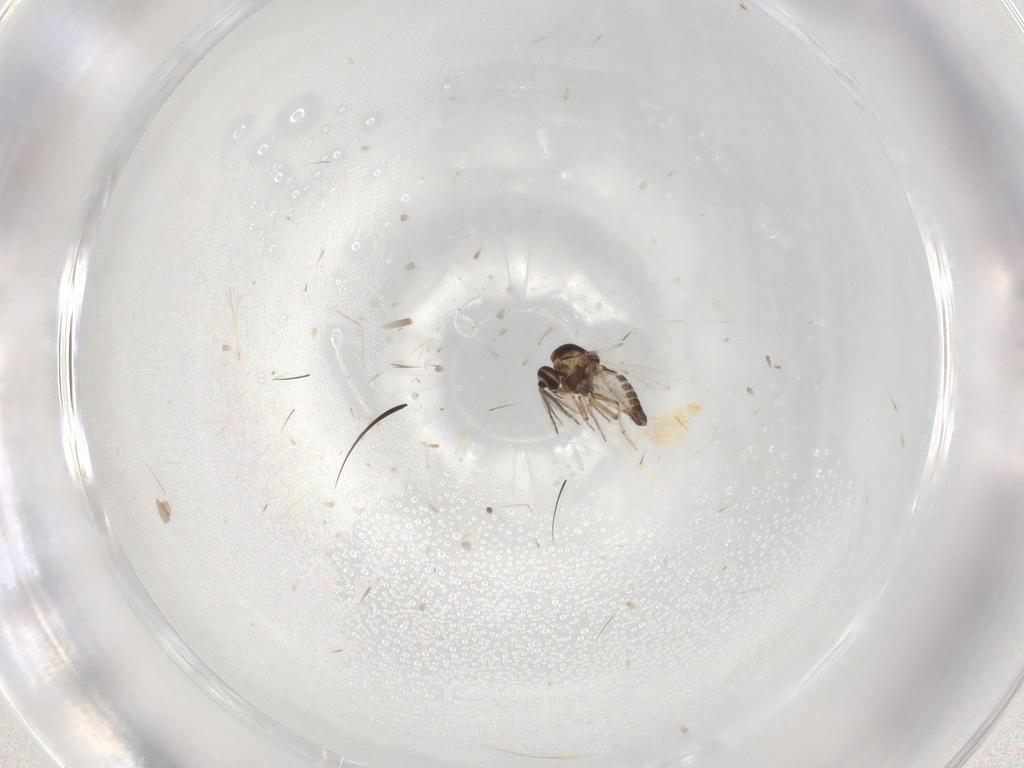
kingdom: Animalia
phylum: Arthropoda
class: Insecta
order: Diptera
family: Ceratopogonidae
